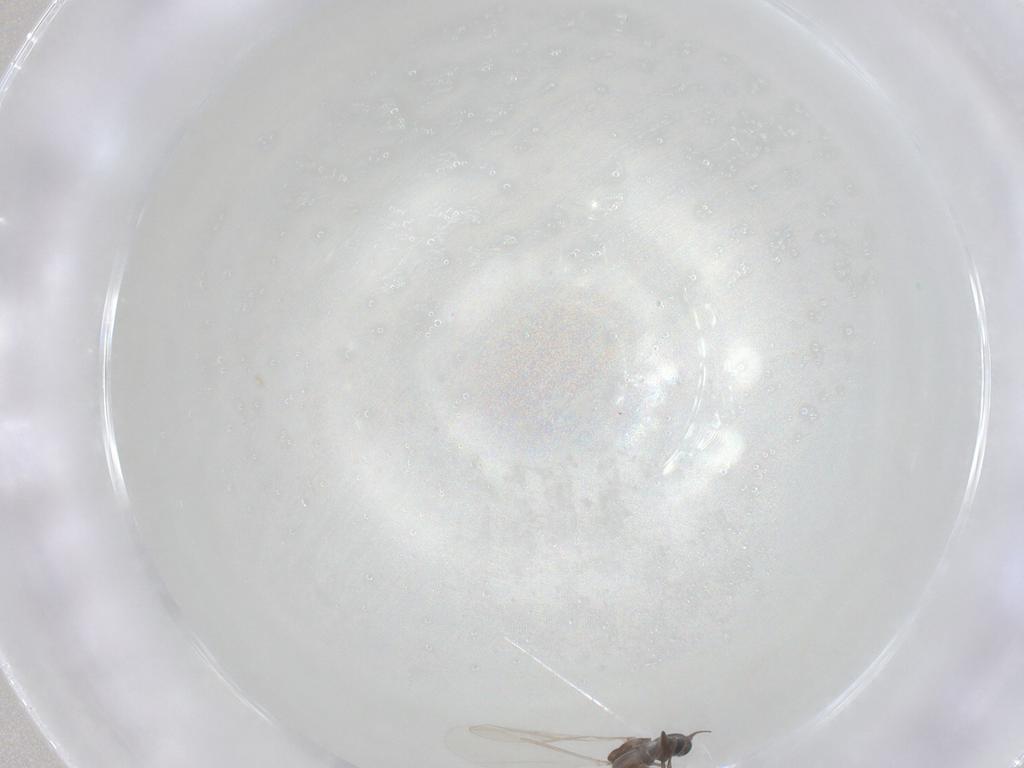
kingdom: Animalia
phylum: Arthropoda
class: Insecta
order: Diptera
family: Cecidomyiidae
